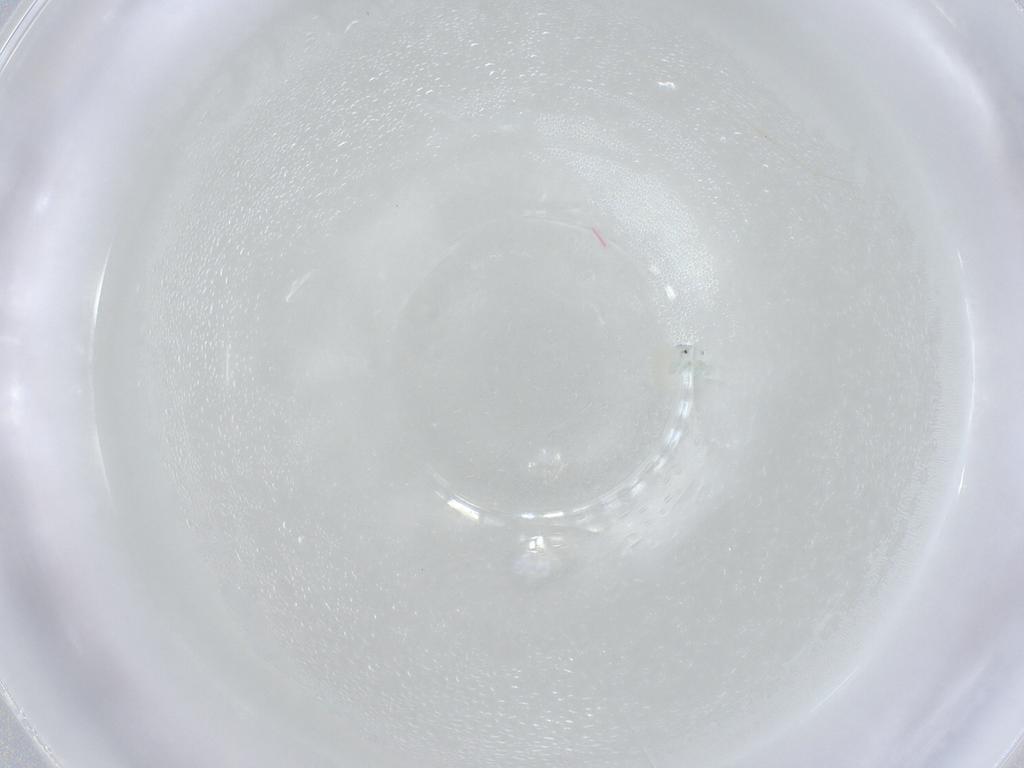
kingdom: Animalia
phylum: Arthropoda
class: Arachnida
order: Trombidiformes
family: Arrenuridae
